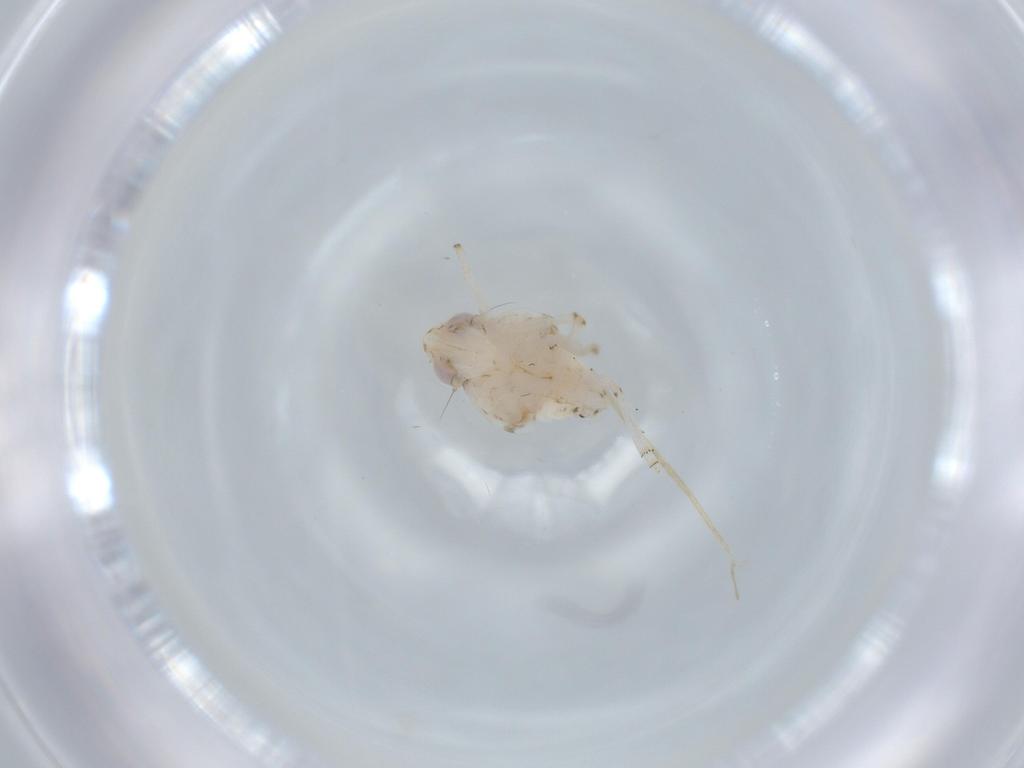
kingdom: Animalia
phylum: Arthropoda
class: Insecta
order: Hemiptera
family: Nogodinidae
